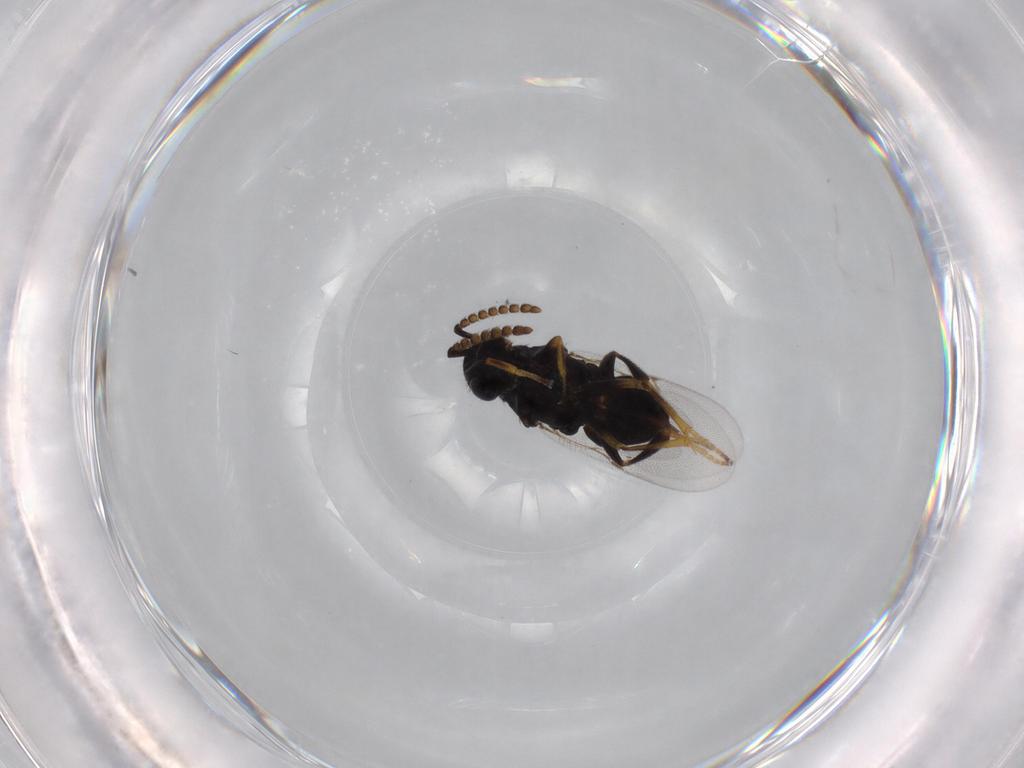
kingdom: Animalia
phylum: Arthropoda
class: Insecta
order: Hymenoptera
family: Encyrtidae
